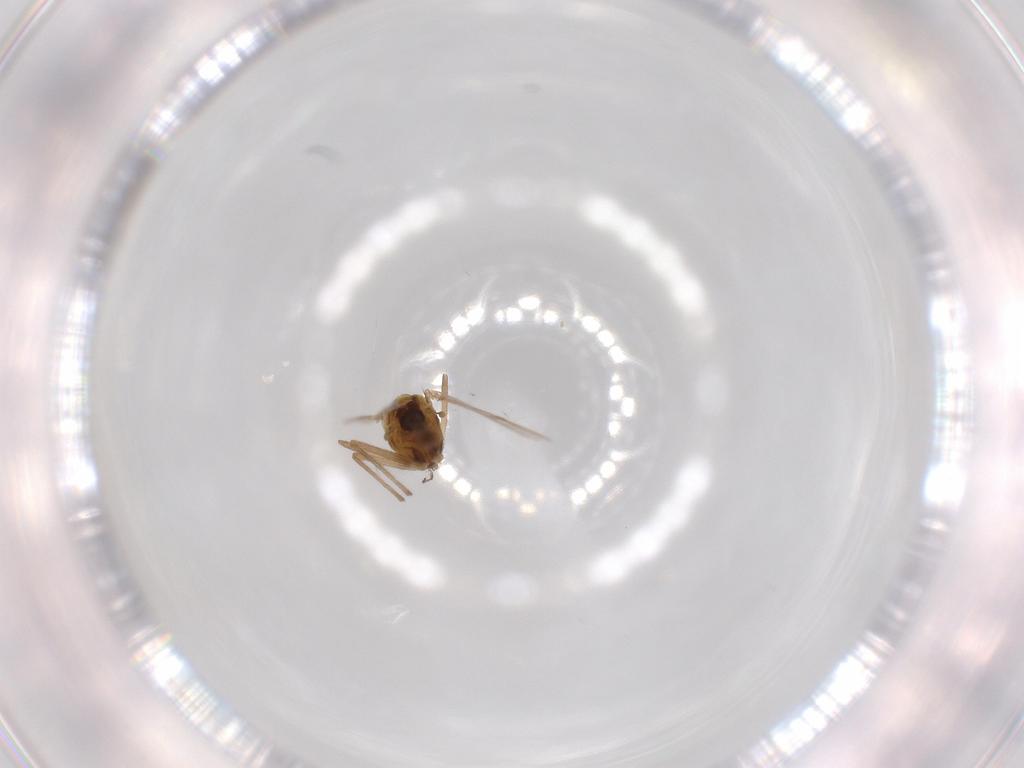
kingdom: Animalia
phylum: Arthropoda
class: Insecta
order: Diptera
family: Chironomidae
